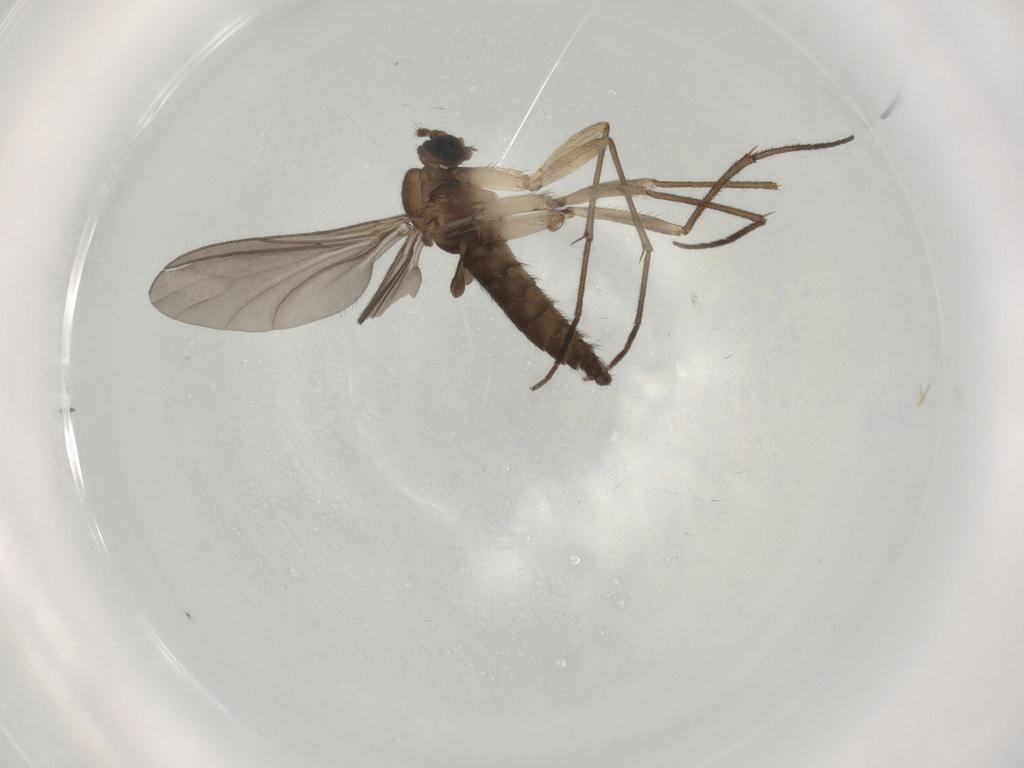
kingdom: Animalia
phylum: Arthropoda
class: Insecta
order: Diptera
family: Sciaridae
